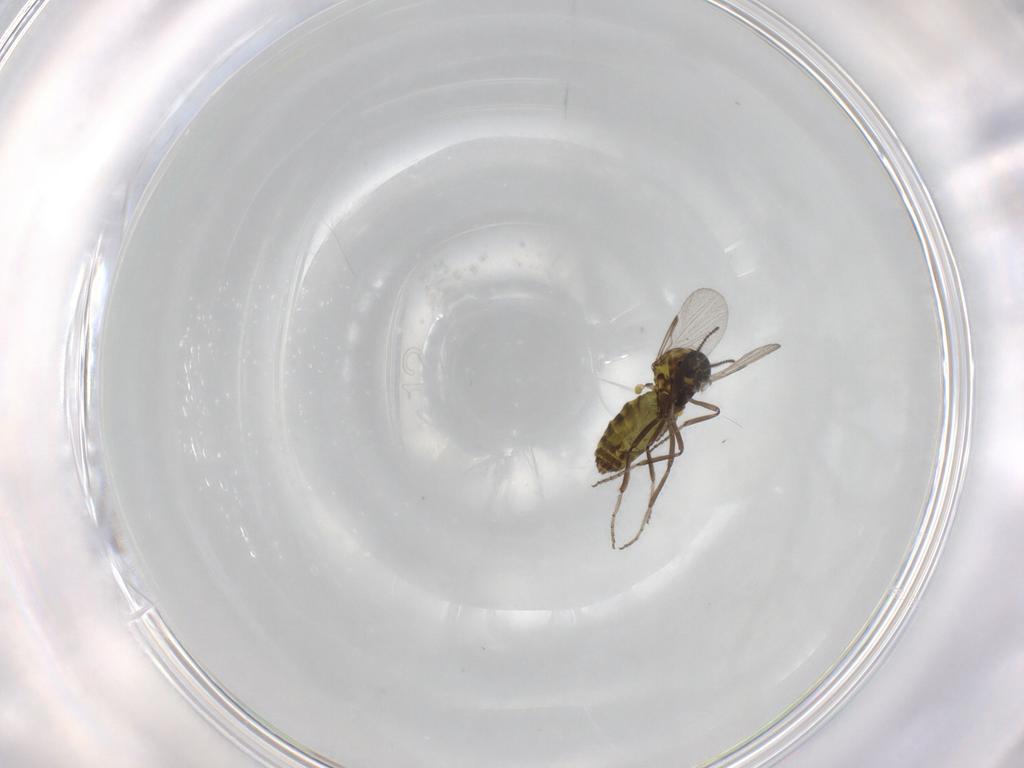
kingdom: Animalia
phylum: Arthropoda
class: Insecta
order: Diptera
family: Ceratopogonidae
